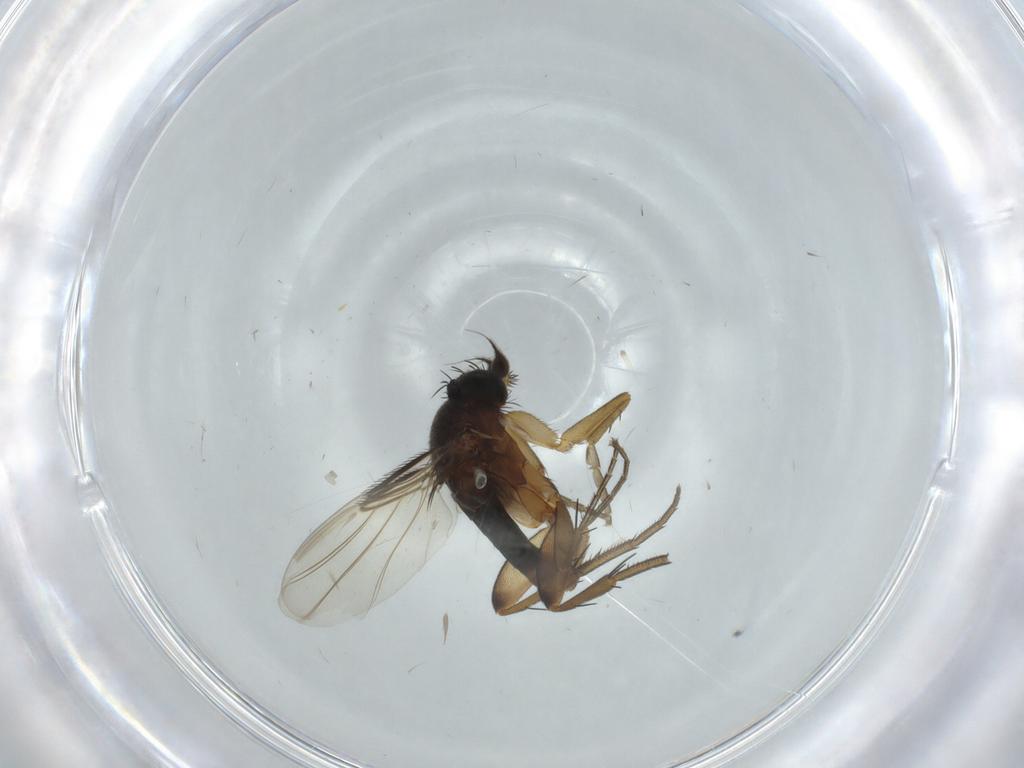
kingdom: Animalia
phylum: Arthropoda
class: Insecta
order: Diptera
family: Phoridae
